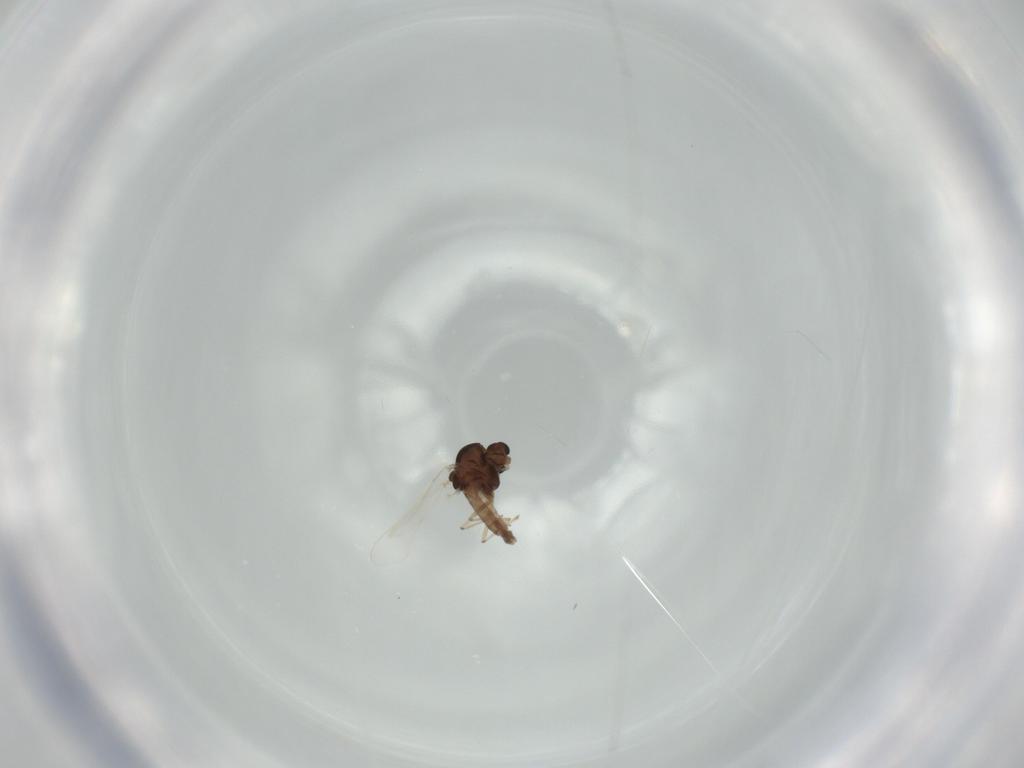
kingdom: Animalia
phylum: Arthropoda
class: Insecta
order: Diptera
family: Chironomidae
